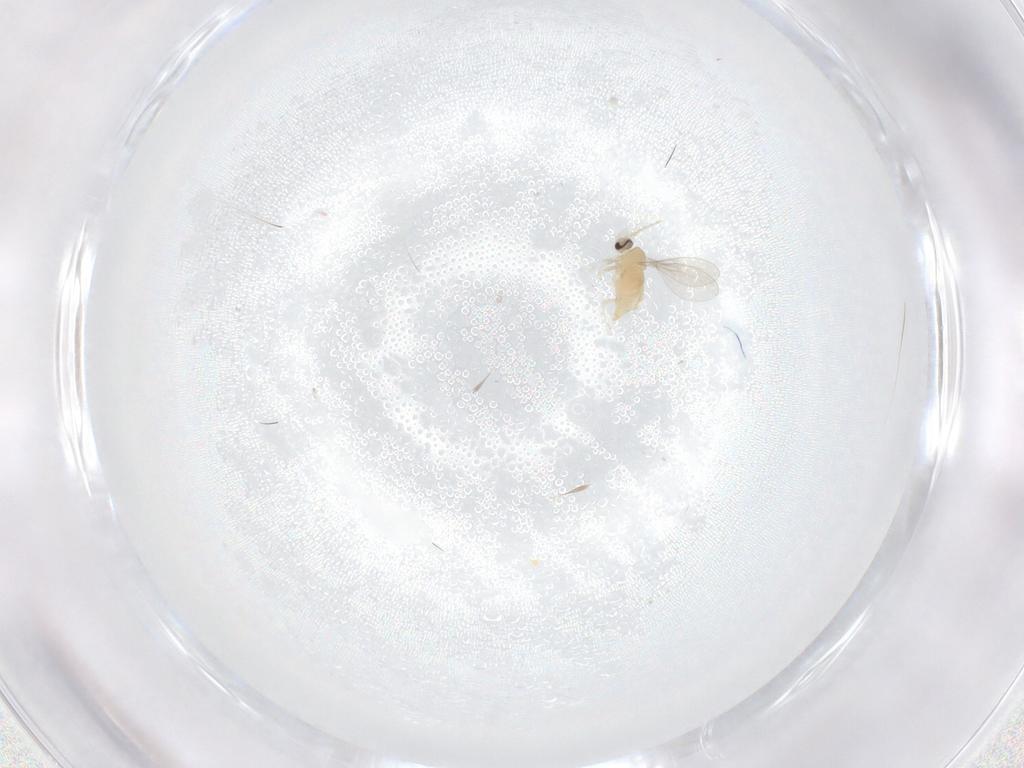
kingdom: Animalia
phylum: Arthropoda
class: Insecta
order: Diptera
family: Cecidomyiidae
